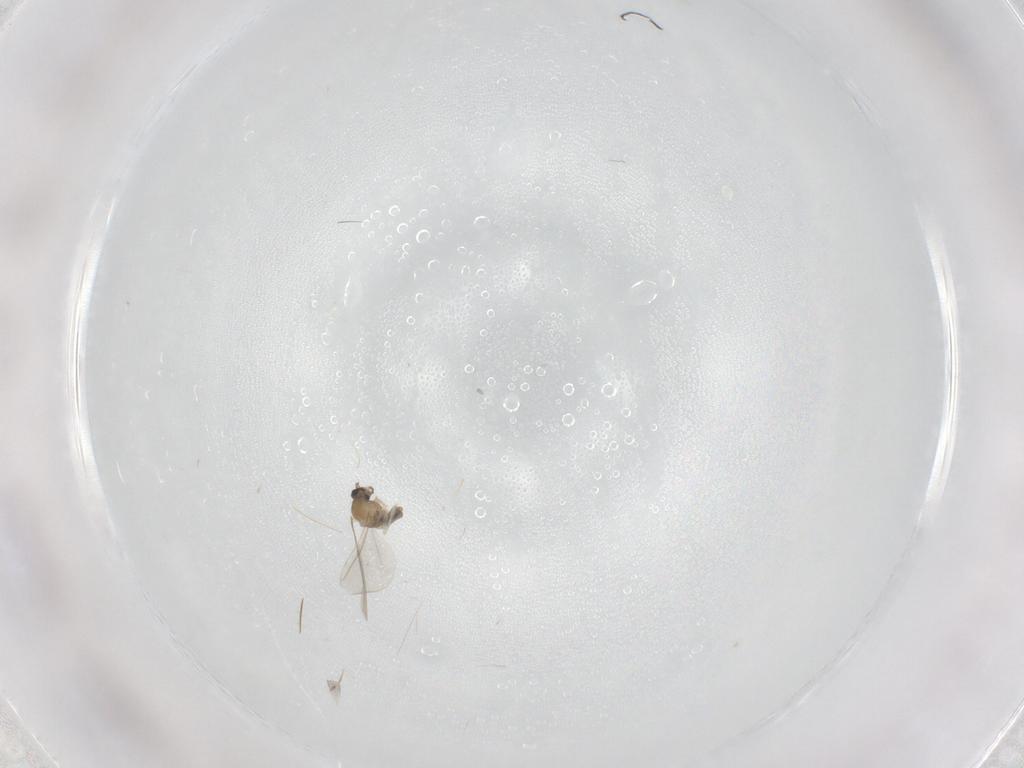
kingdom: Animalia
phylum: Arthropoda
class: Insecta
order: Diptera
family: Cecidomyiidae
